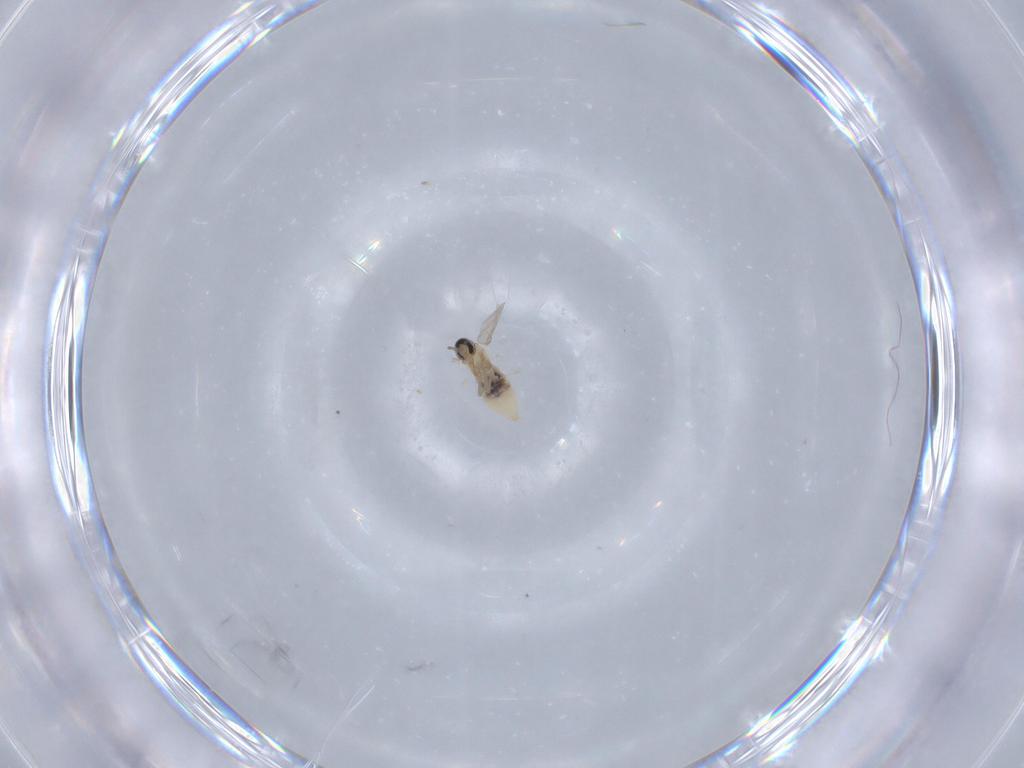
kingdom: Animalia
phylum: Arthropoda
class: Insecta
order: Diptera
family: Cecidomyiidae
